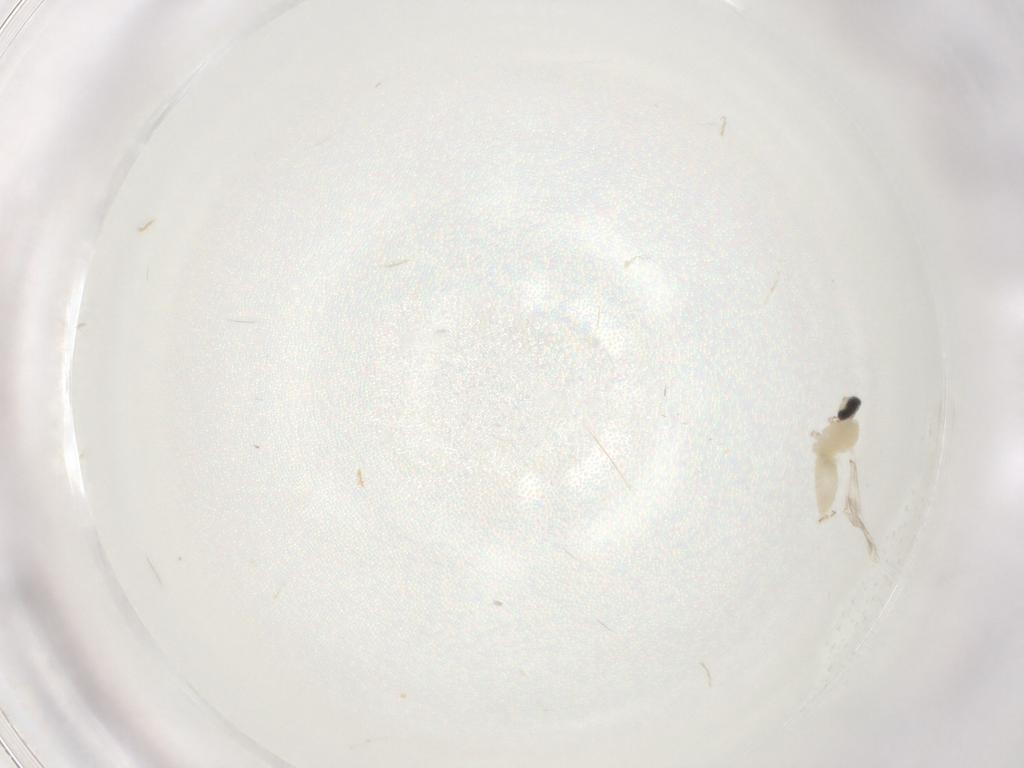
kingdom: Animalia
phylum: Arthropoda
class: Insecta
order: Diptera
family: Cecidomyiidae
